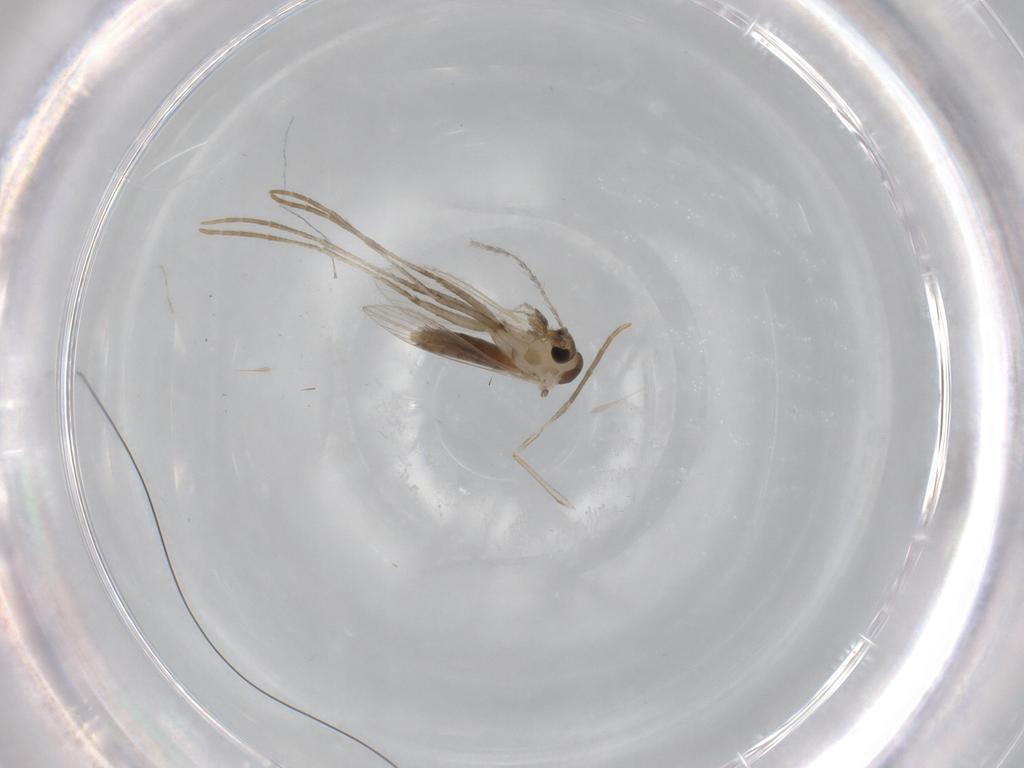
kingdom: Animalia
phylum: Arthropoda
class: Insecta
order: Diptera
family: Psychodidae
